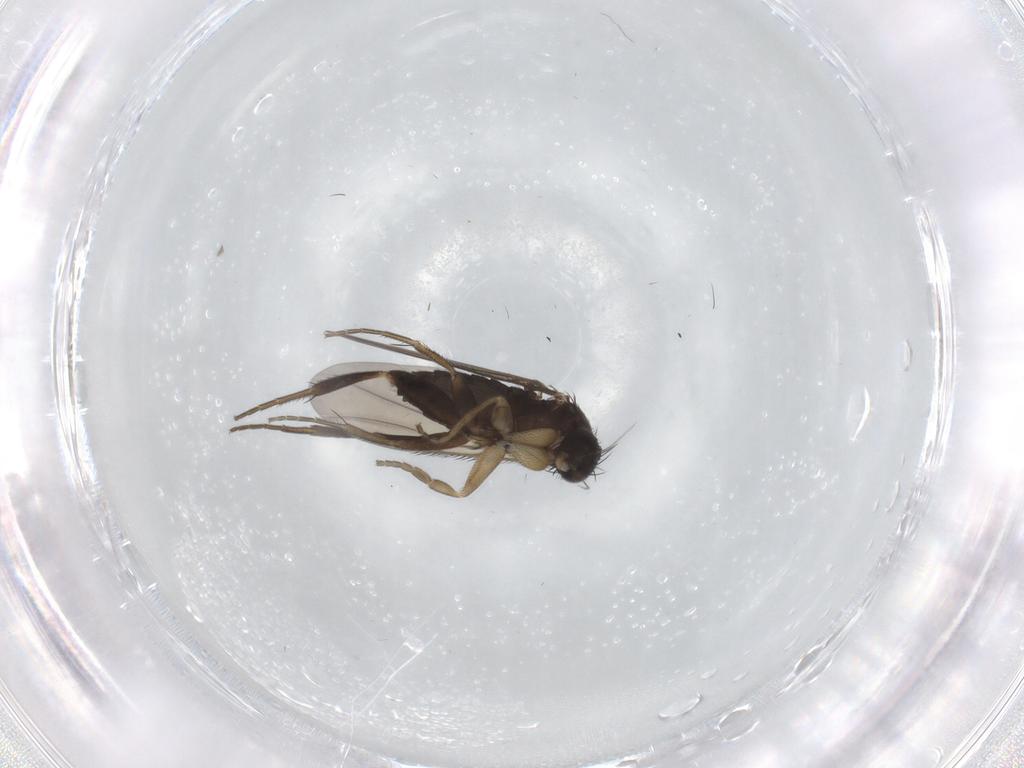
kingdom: Animalia
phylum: Arthropoda
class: Insecta
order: Diptera
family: Phoridae
